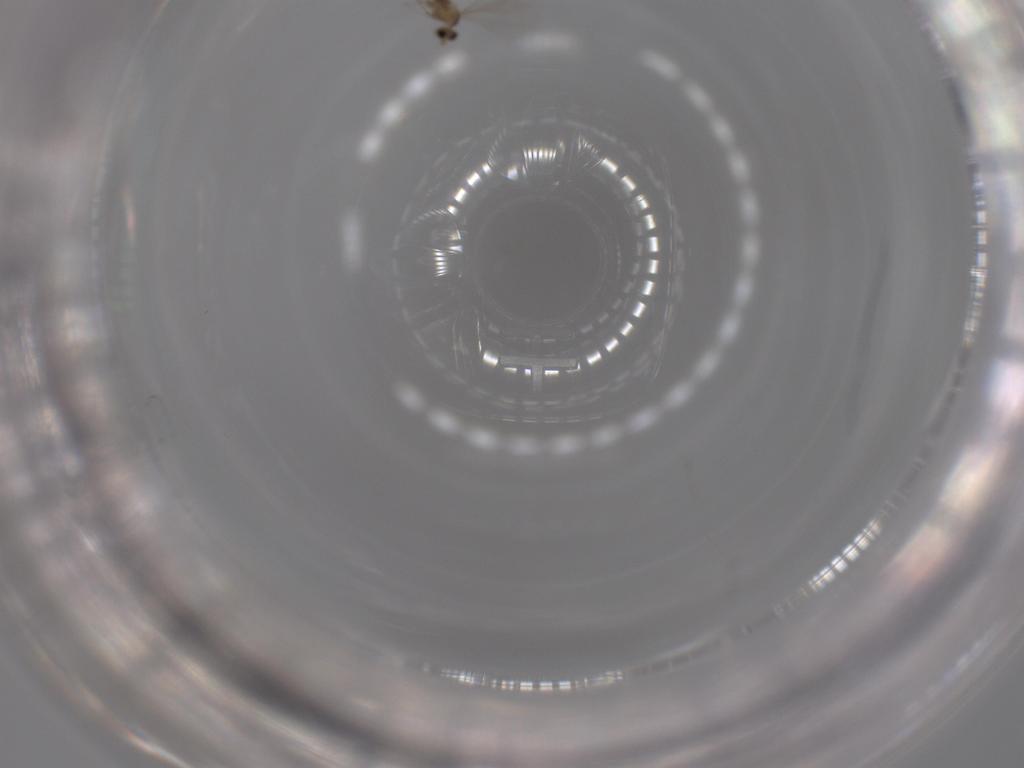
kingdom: Animalia
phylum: Arthropoda
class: Insecta
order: Diptera
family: Cecidomyiidae
